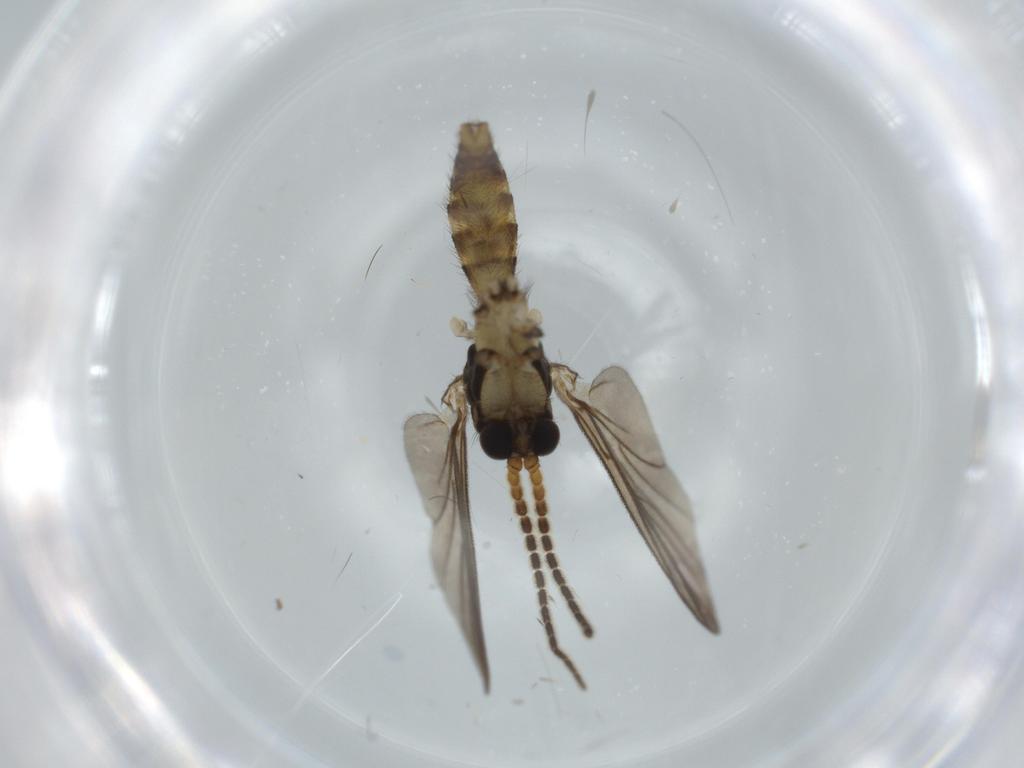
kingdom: Animalia
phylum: Arthropoda
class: Insecta
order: Diptera
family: Mycetophilidae
